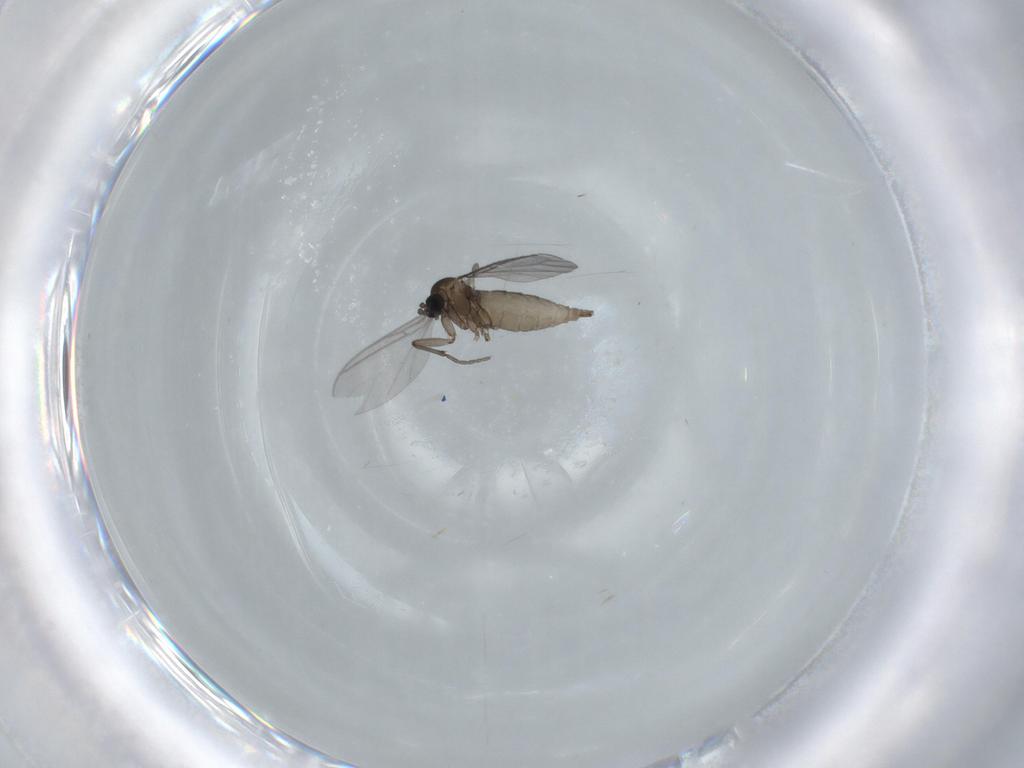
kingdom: Animalia
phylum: Arthropoda
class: Insecta
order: Diptera
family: Sciaridae
